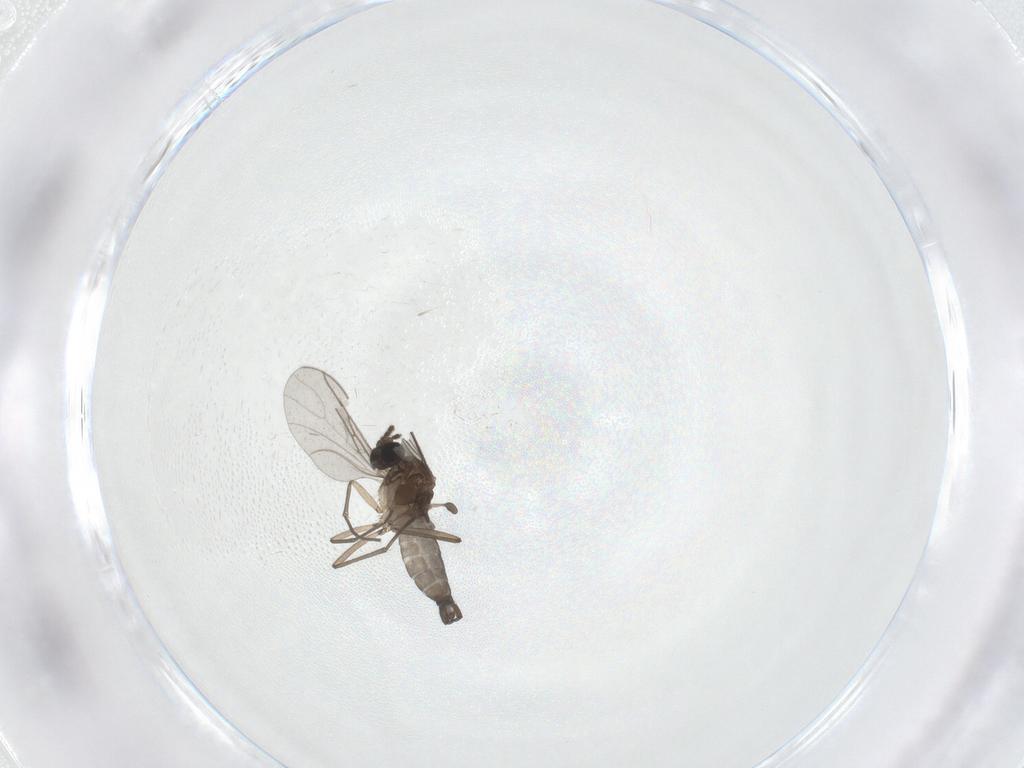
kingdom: Animalia
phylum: Arthropoda
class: Insecta
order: Diptera
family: Sciaridae
